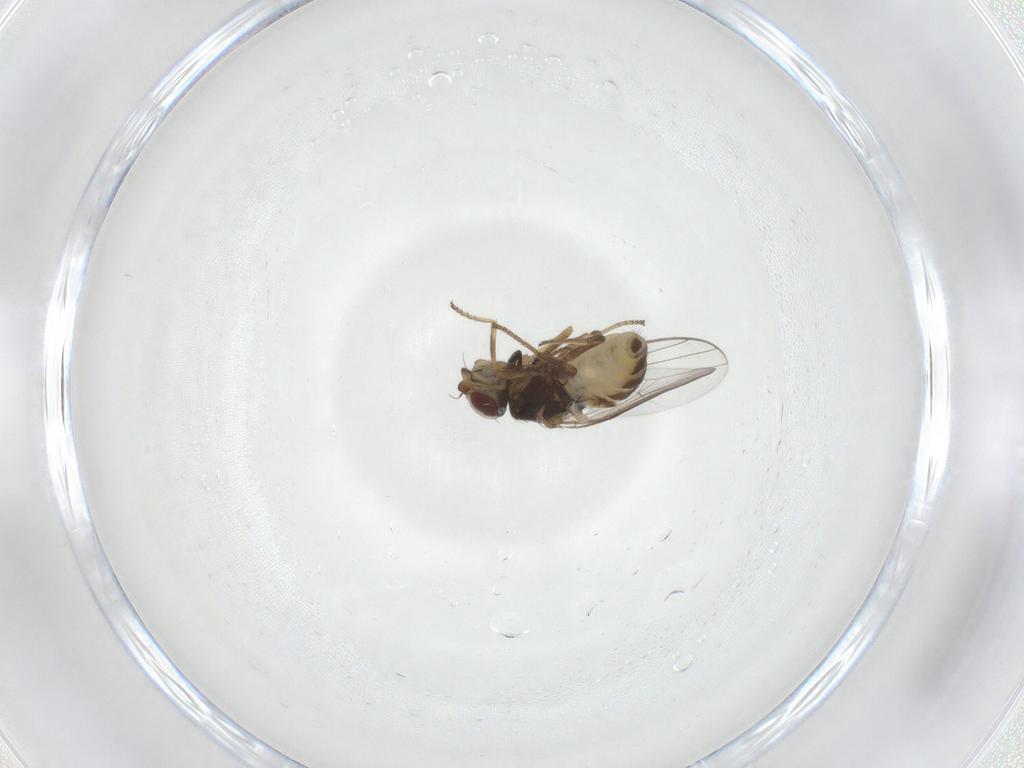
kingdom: Animalia
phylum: Arthropoda
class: Insecta
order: Diptera
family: Chloropidae
